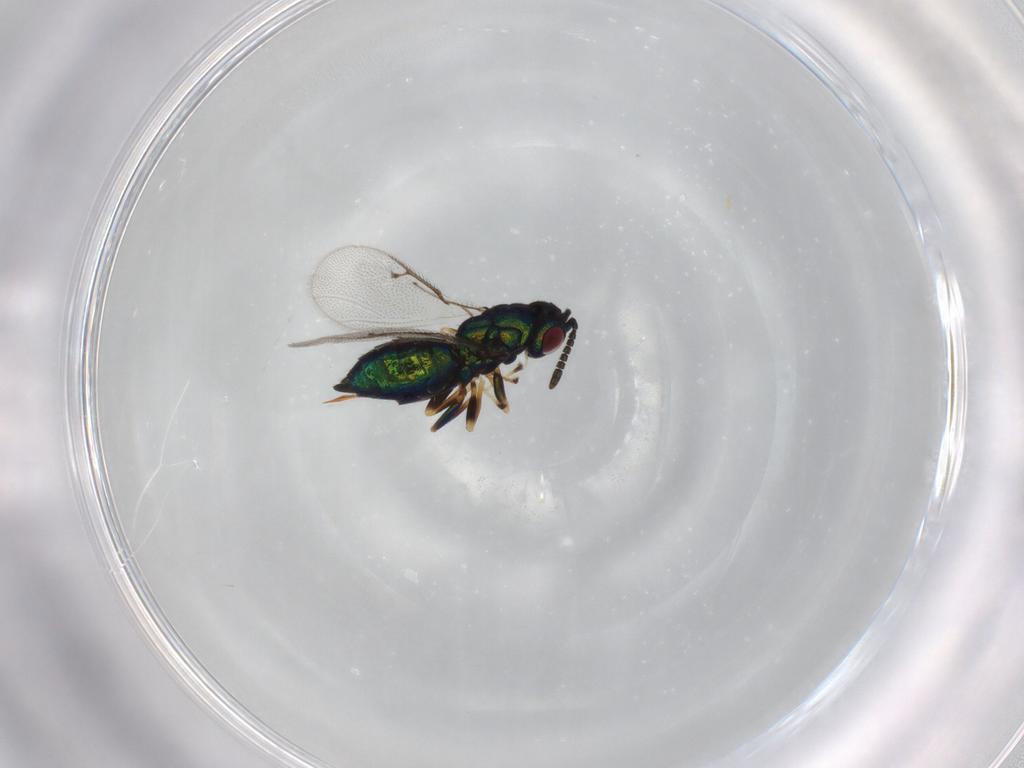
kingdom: Animalia
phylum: Arthropoda
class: Insecta
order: Hymenoptera
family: Pteromalidae
